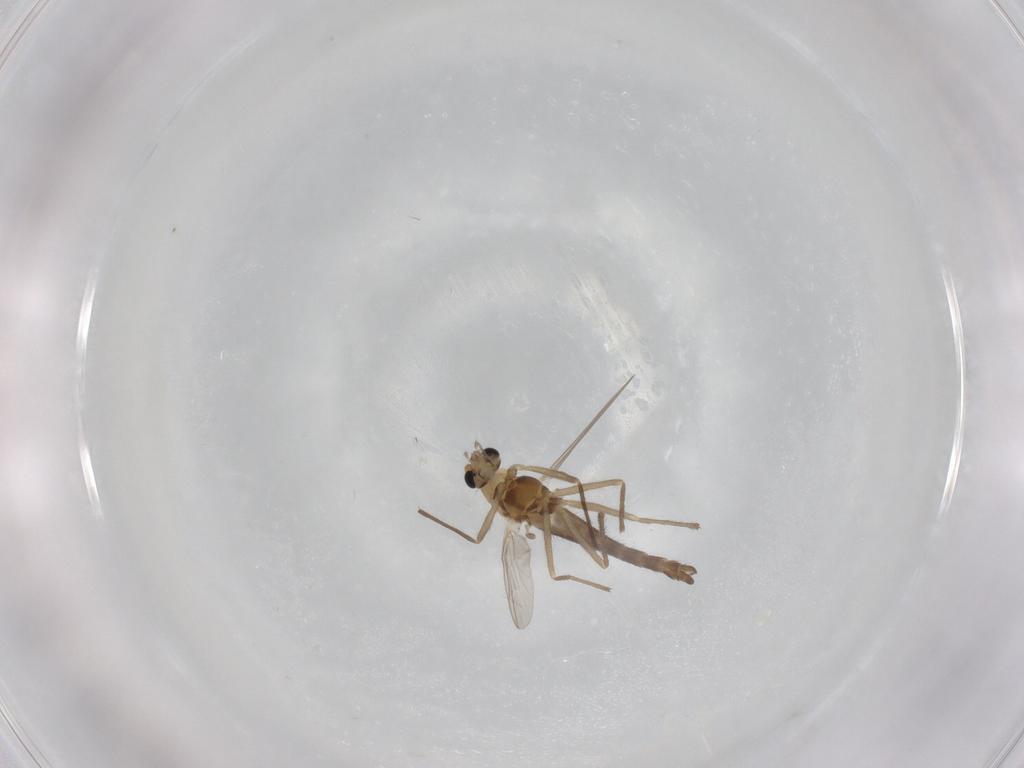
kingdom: Animalia
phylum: Arthropoda
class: Insecta
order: Diptera
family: Chironomidae
